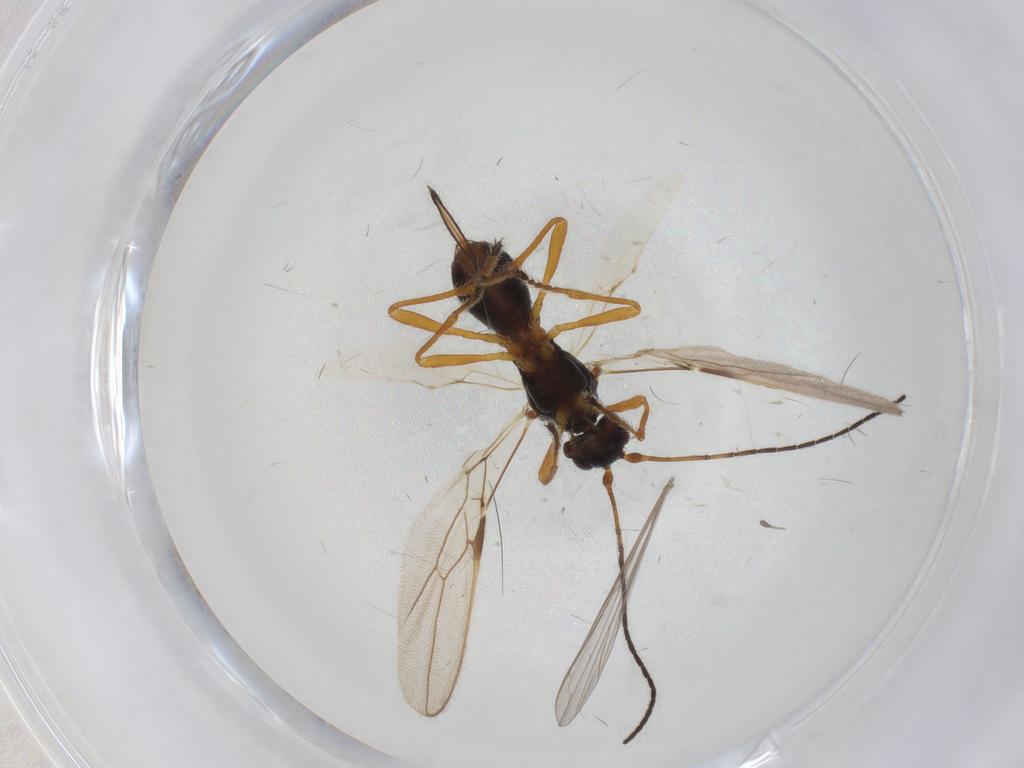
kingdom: Animalia
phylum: Arthropoda
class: Insecta
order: Hymenoptera
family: Braconidae
